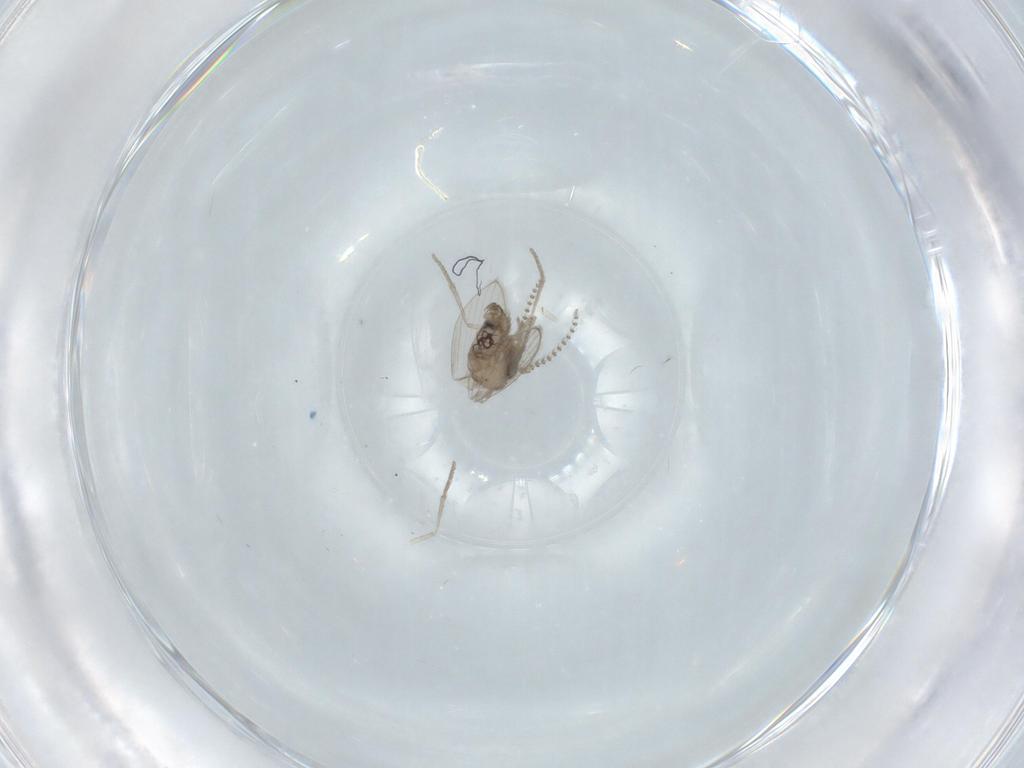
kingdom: Animalia
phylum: Arthropoda
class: Insecta
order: Diptera
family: Psychodidae
